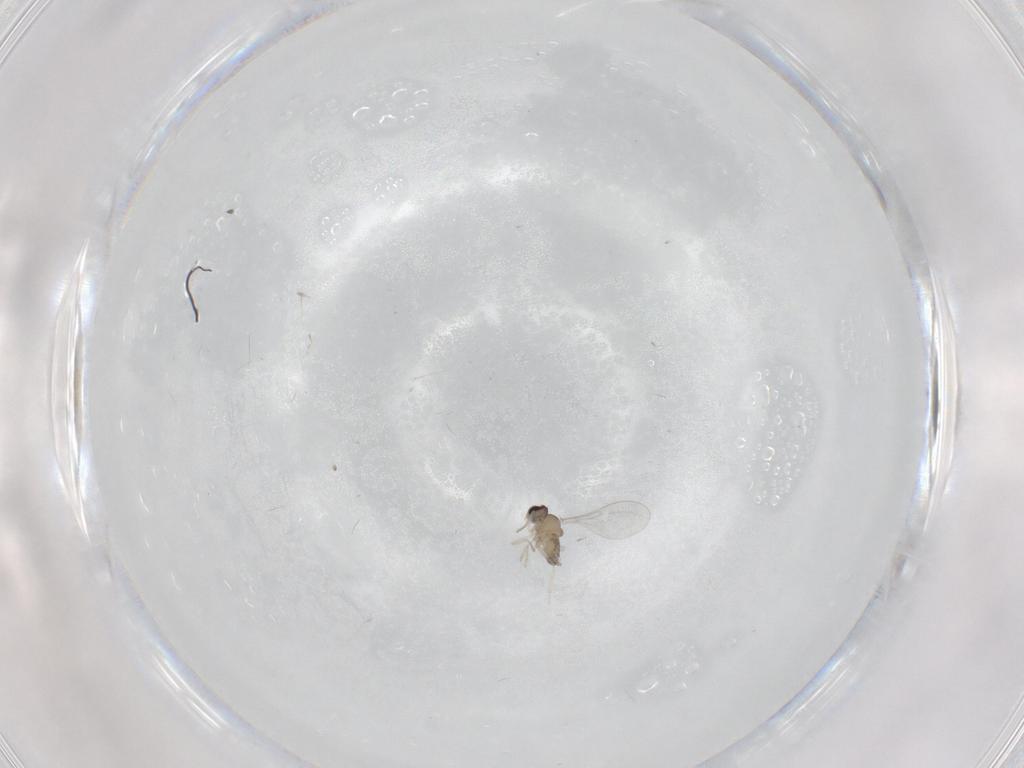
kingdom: Animalia
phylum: Arthropoda
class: Insecta
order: Diptera
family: Cecidomyiidae
